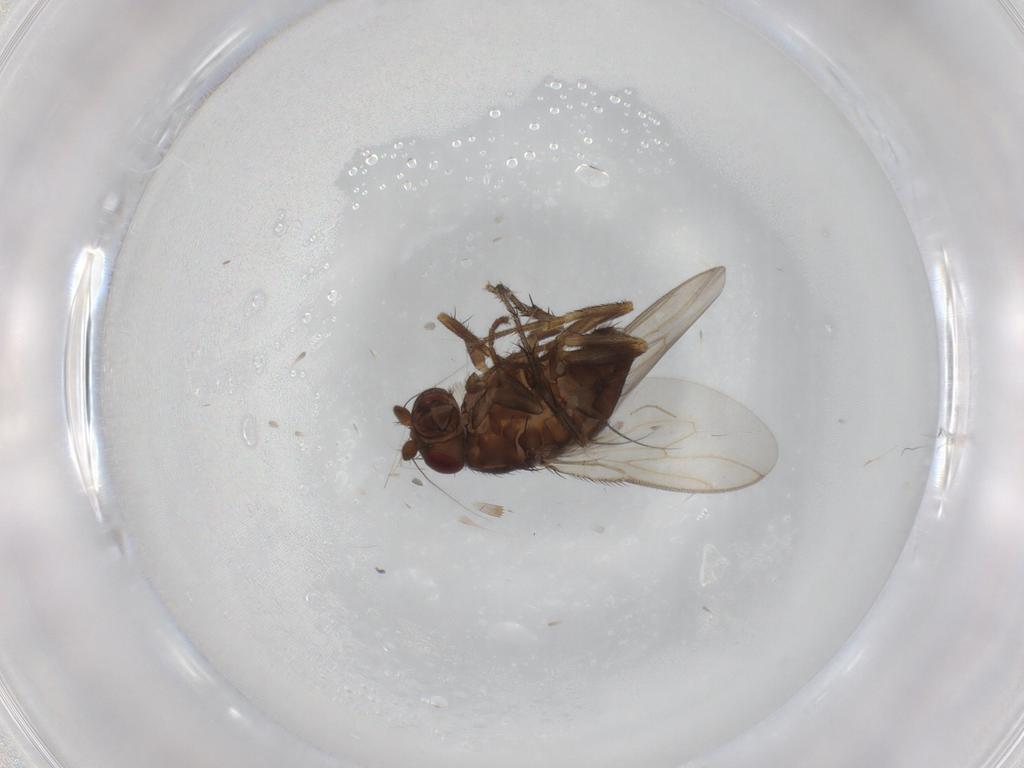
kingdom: Animalia
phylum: Arthropoda
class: Insecta
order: Diptera
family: Sphaeroceridae
